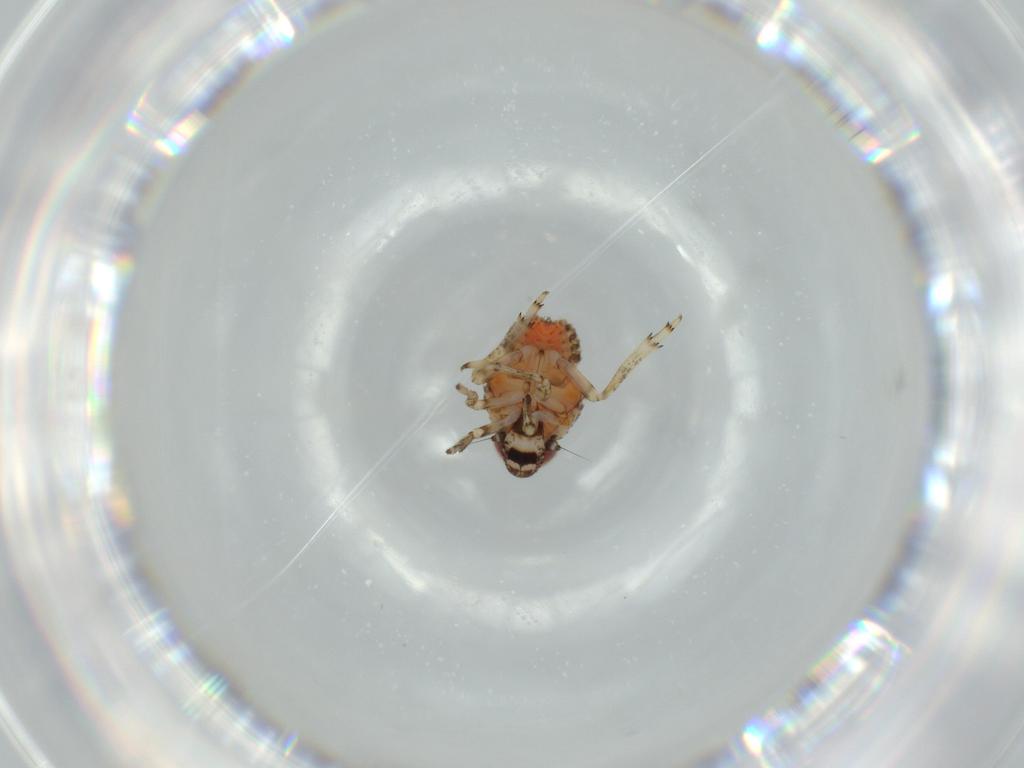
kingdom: Animalia
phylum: Arthropoda
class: Insecta
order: Hemiptera
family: Issidae
